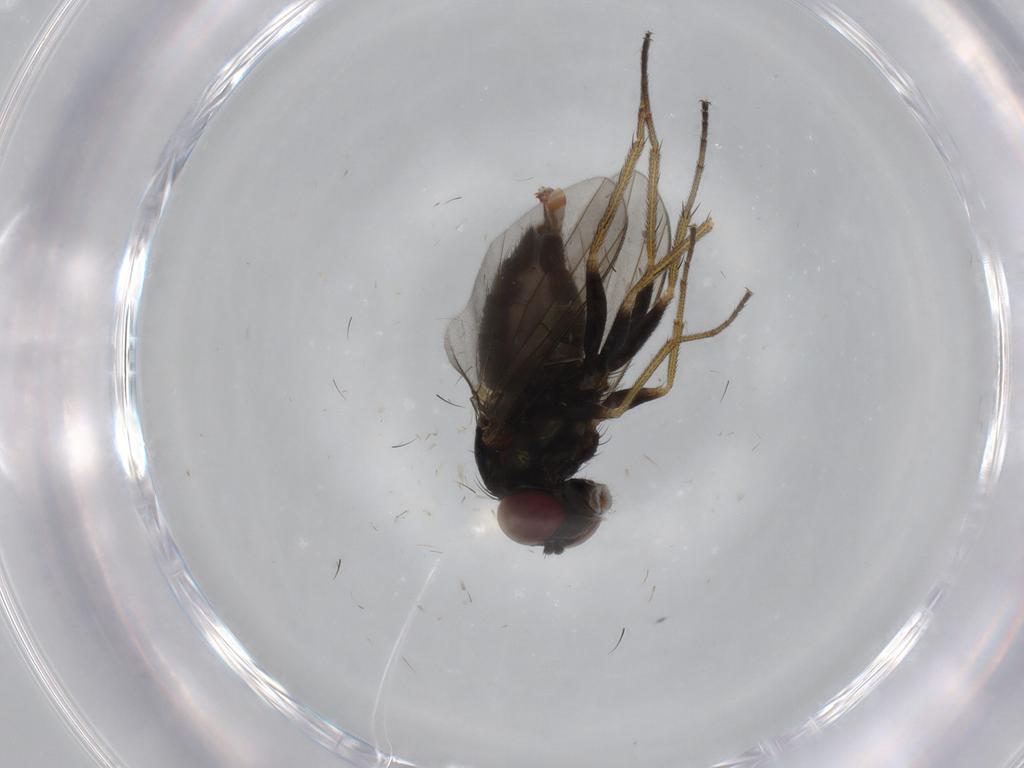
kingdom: Animalia
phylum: Arthropoda
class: Insecta
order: Diptera
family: Dolichopodidae
